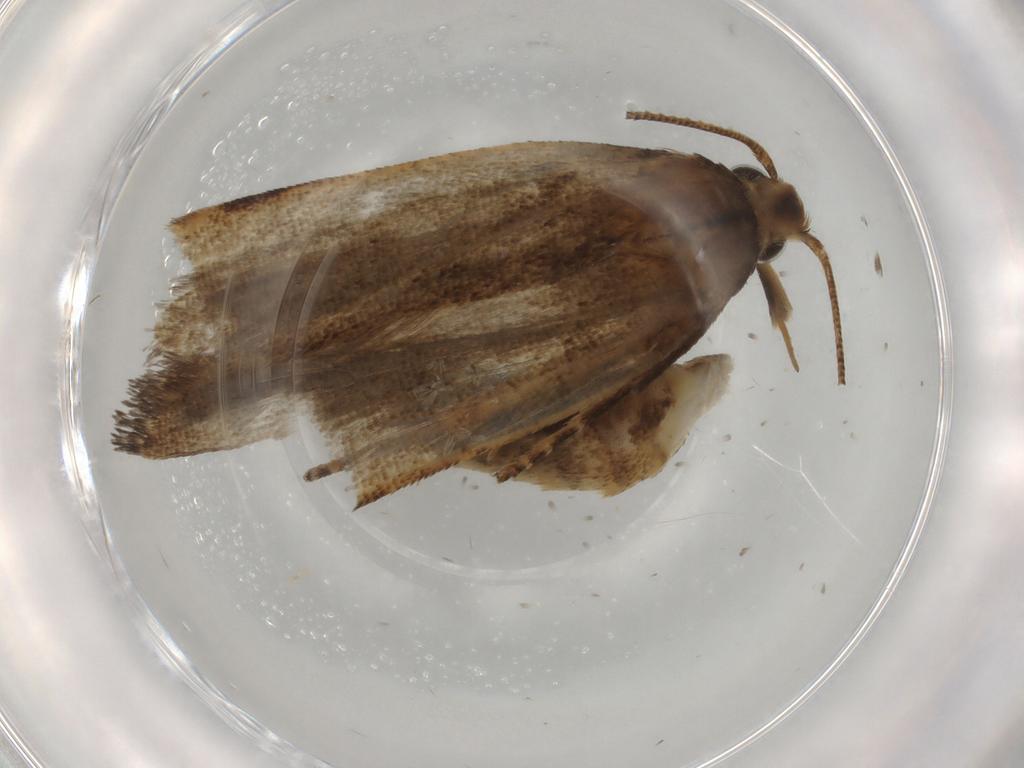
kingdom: Animalia
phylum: Arthropoda
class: Insecta
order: Lepidoptera
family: Gelechiidae
